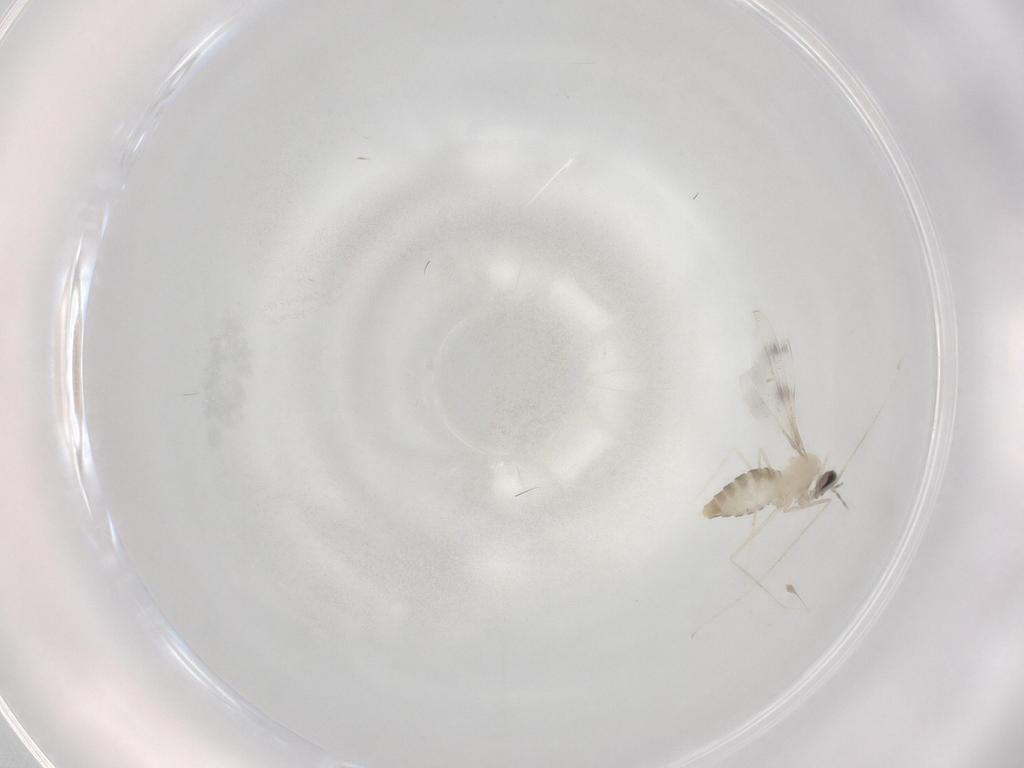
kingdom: Animalia
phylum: Arthropoda
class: Insecta
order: Diptera
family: Cecidomyiidae
